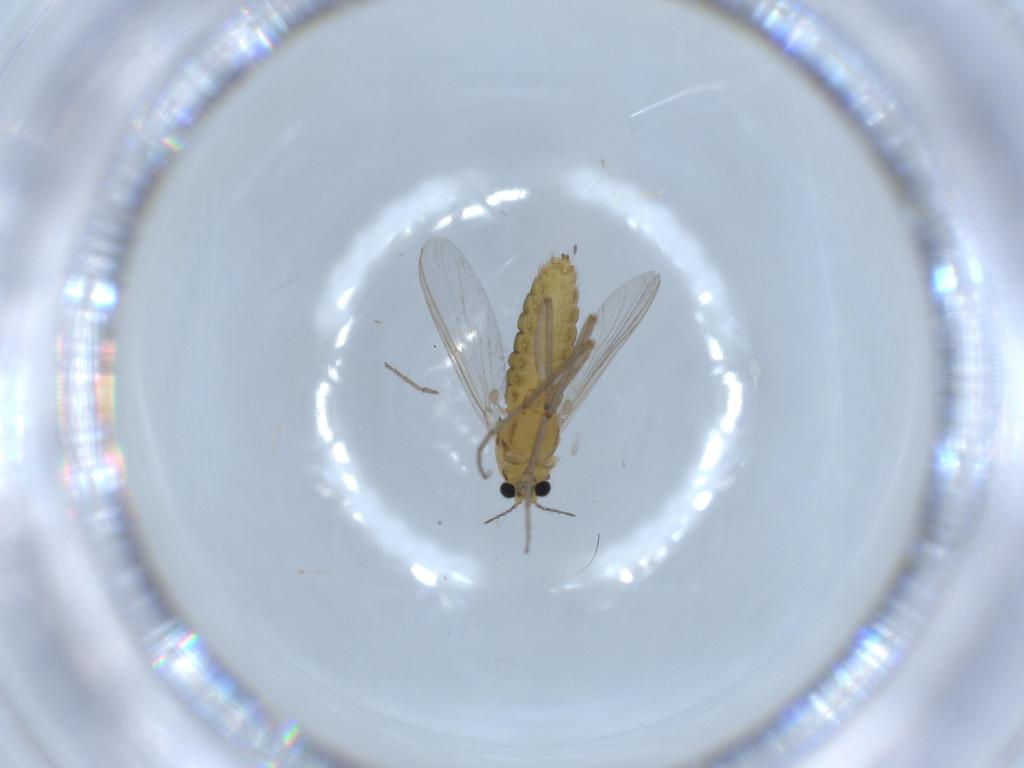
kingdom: Animalia
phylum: Arthropoda
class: Insecta
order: Diptera
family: Chironomidae
